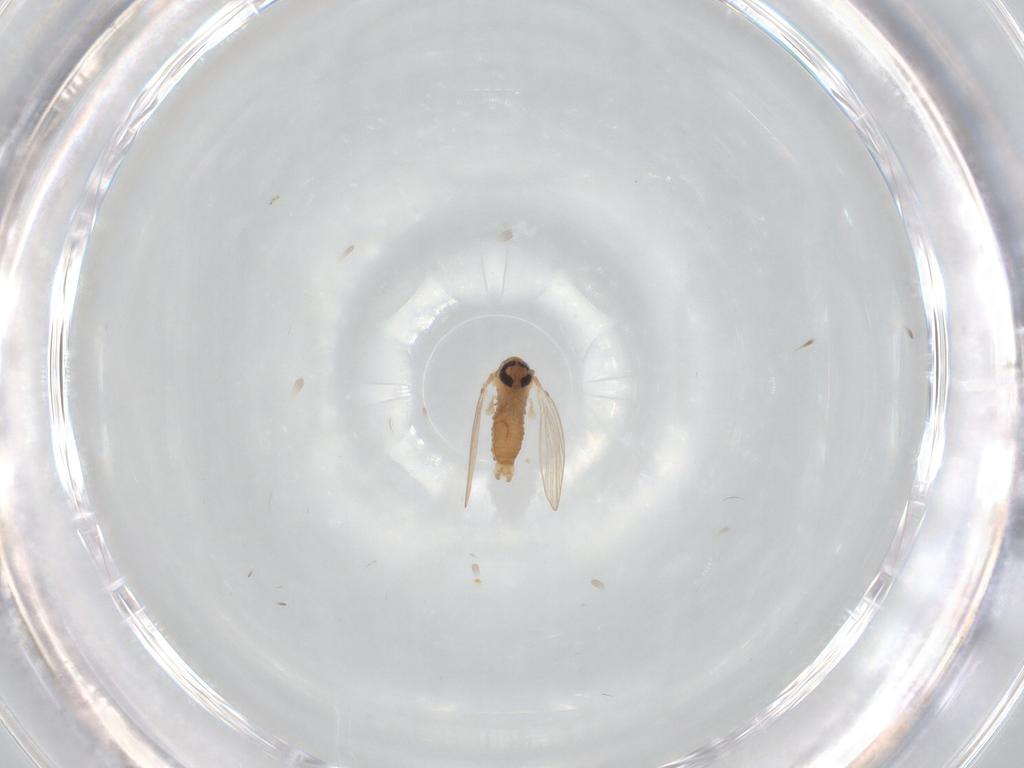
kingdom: Animalia
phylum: Arthropoda
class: Insecta
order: Diptera
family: Psychodidae
